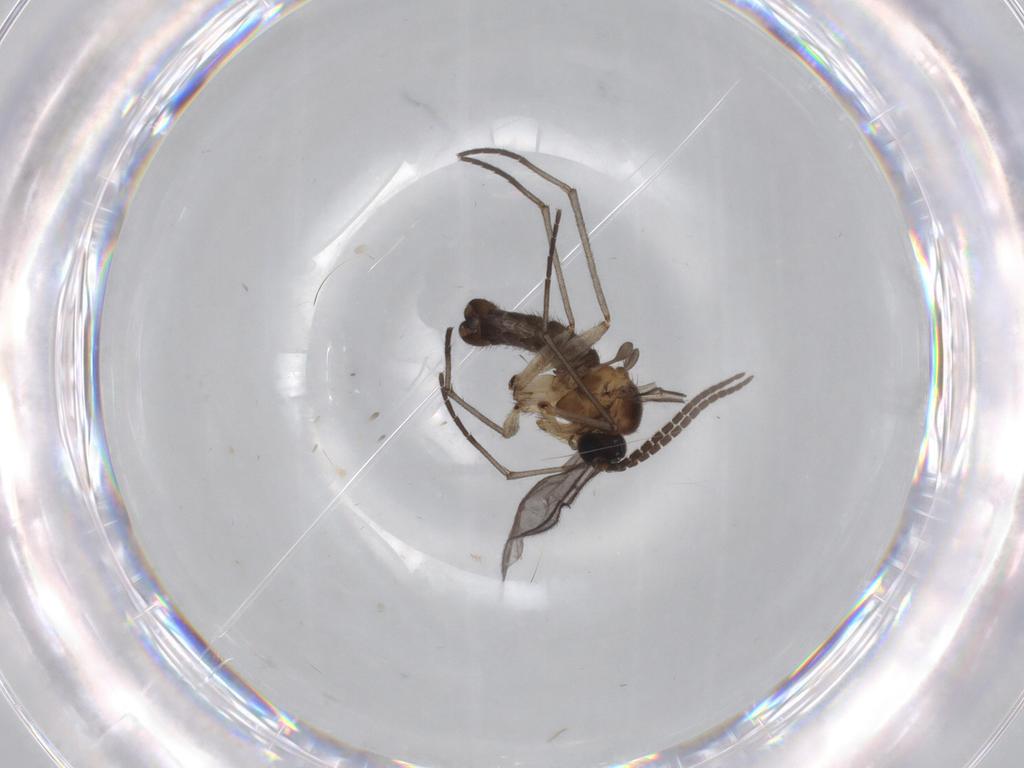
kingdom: Animalia
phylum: Arthropoda
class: Insecta
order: Diptera
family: Sciaridae
